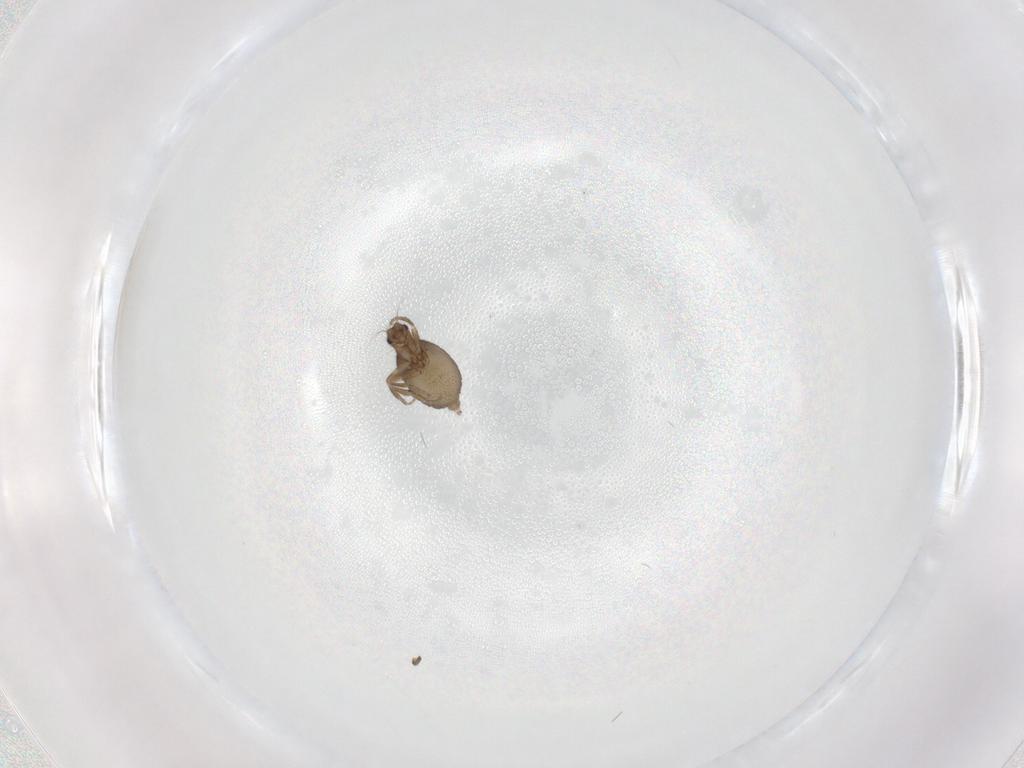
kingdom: Animalia
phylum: Arthropoda
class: Insecta
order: Diptera
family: Phoridae
